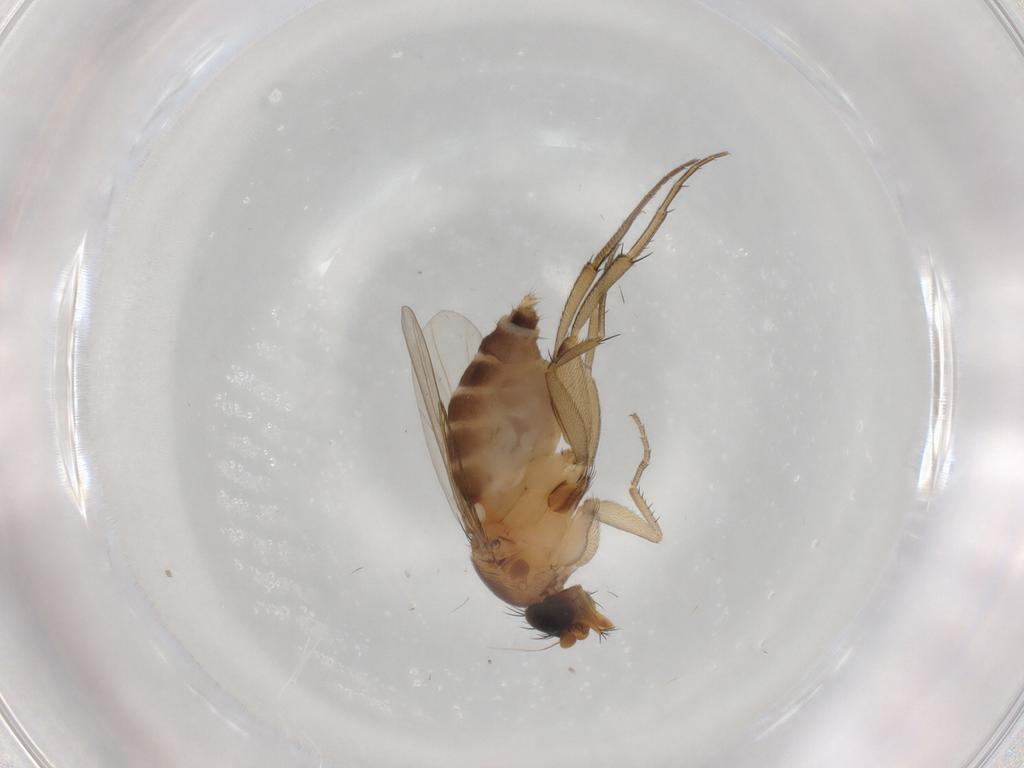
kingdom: Animalia
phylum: Arthropoda
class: Insecta
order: Diptera
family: Phoridae
